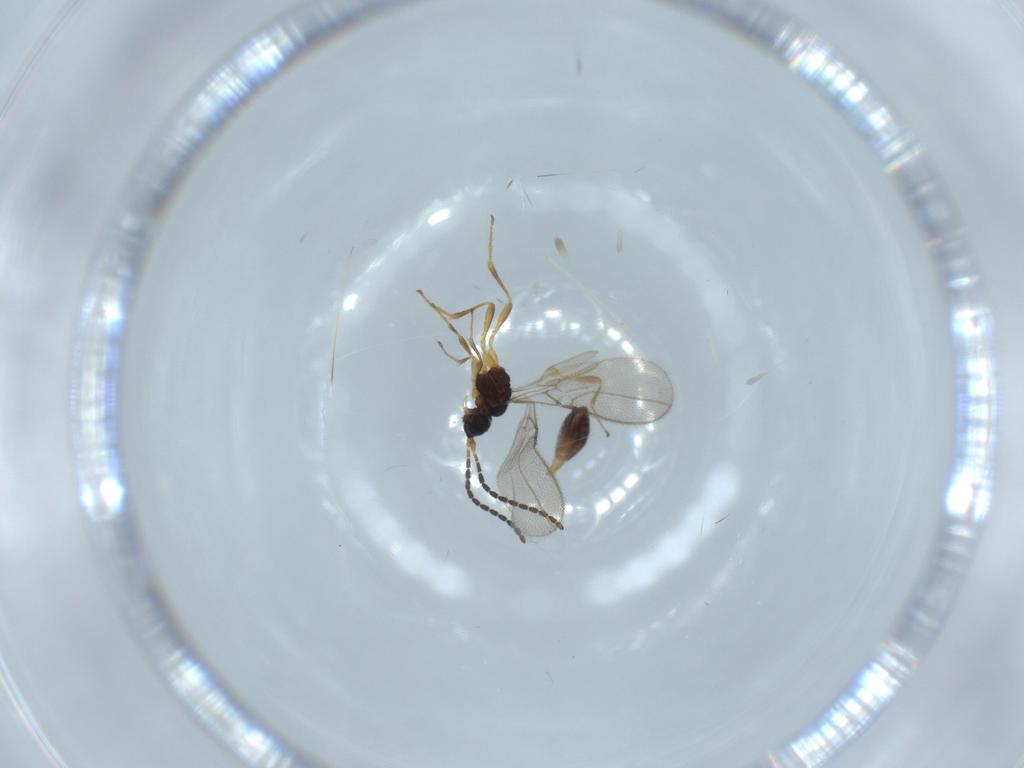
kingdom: Animalia
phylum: Arthropoda
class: Insecta
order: Hymenoptera
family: Braconidae
